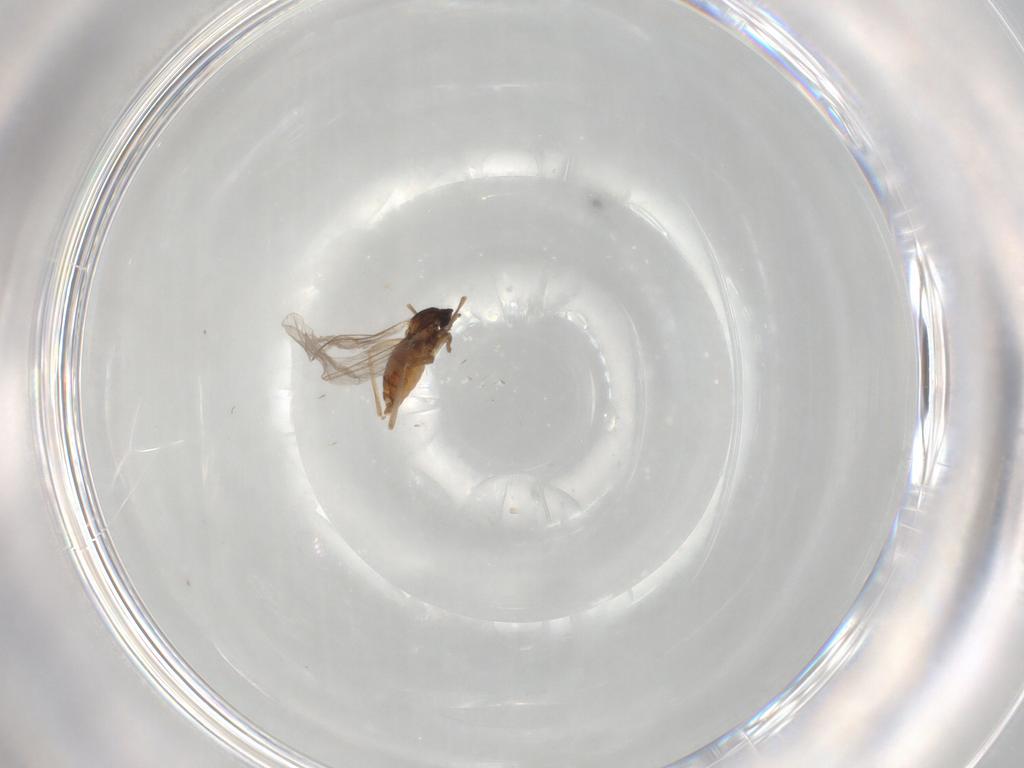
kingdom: Animalia
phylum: Arthropoda
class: Insecta
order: Diptera
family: Cecidomyiidae
